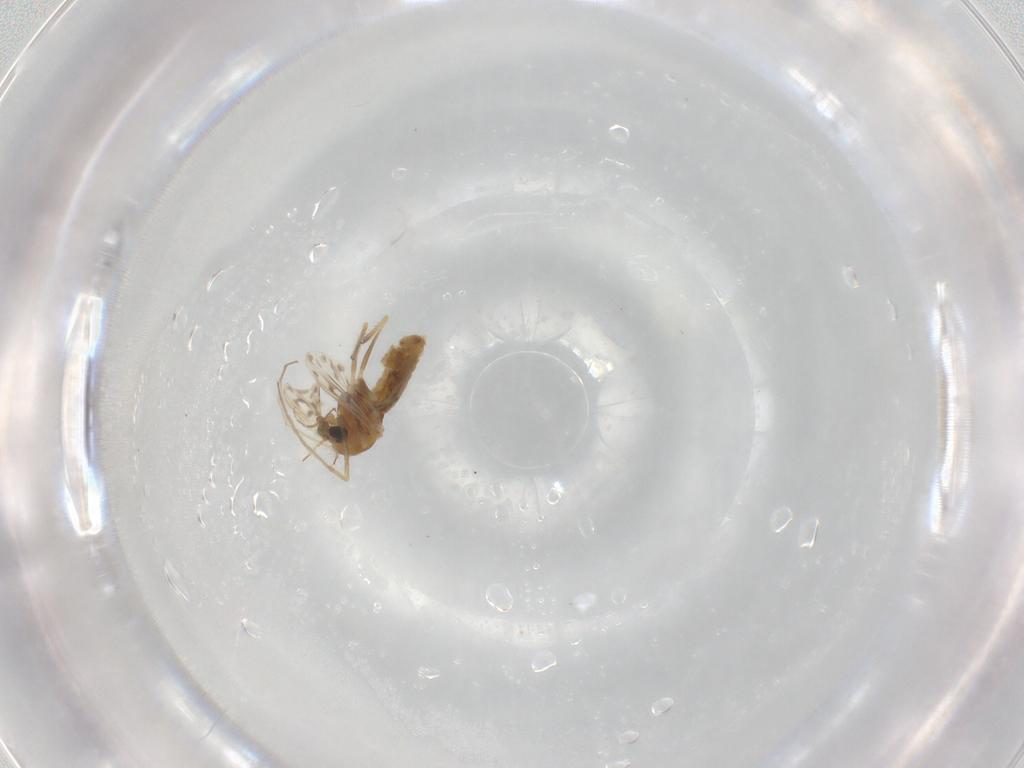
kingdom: Animalia
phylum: Arthropoda
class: Insecta
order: Diptera
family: Chironomidae
